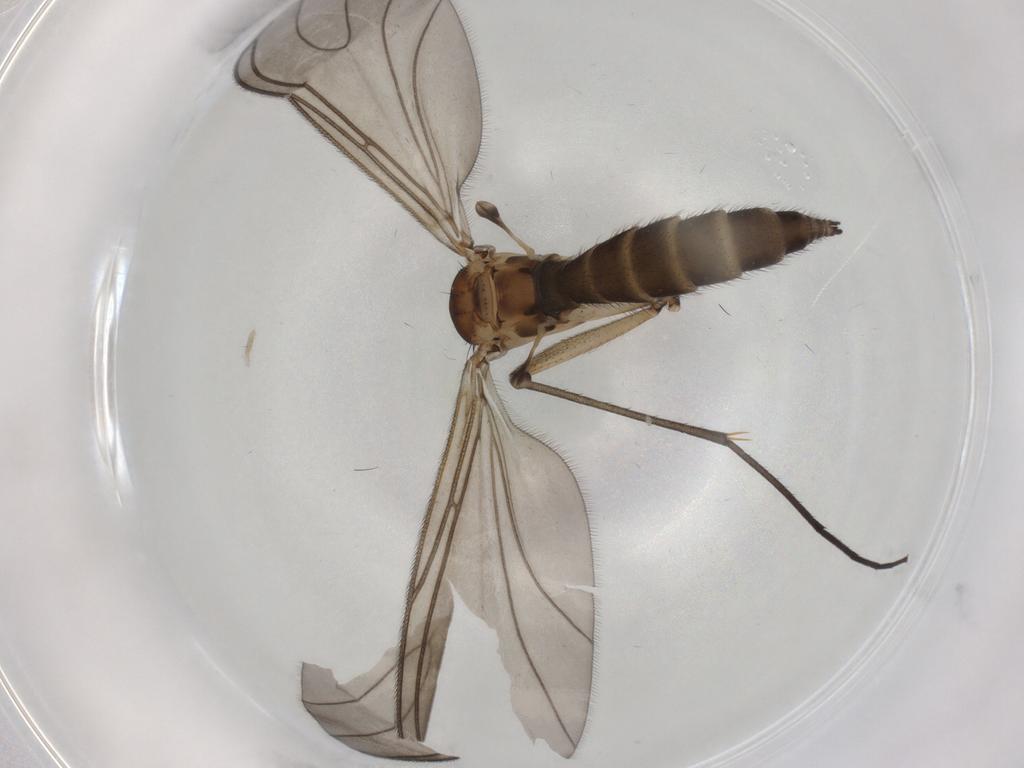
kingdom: Animalia
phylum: Arthropoda
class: Insecta
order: Diptera
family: Sciaridae
